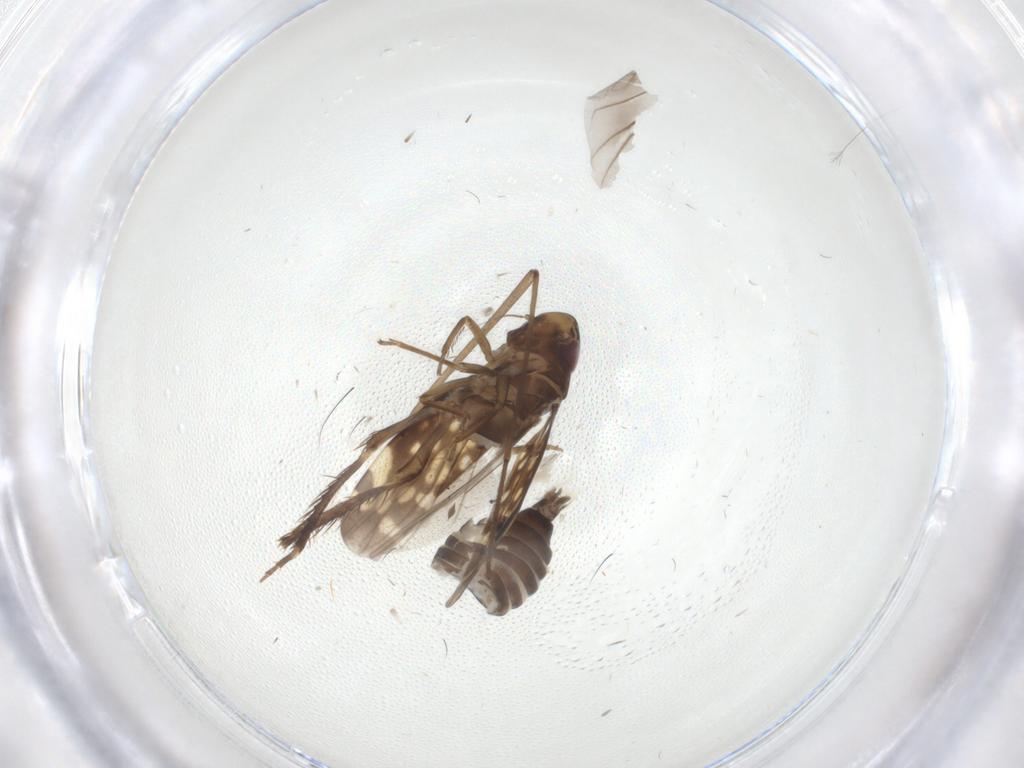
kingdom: Animalia
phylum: Arthropoda
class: Insecta
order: Hemiptera
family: Cicadellidae
